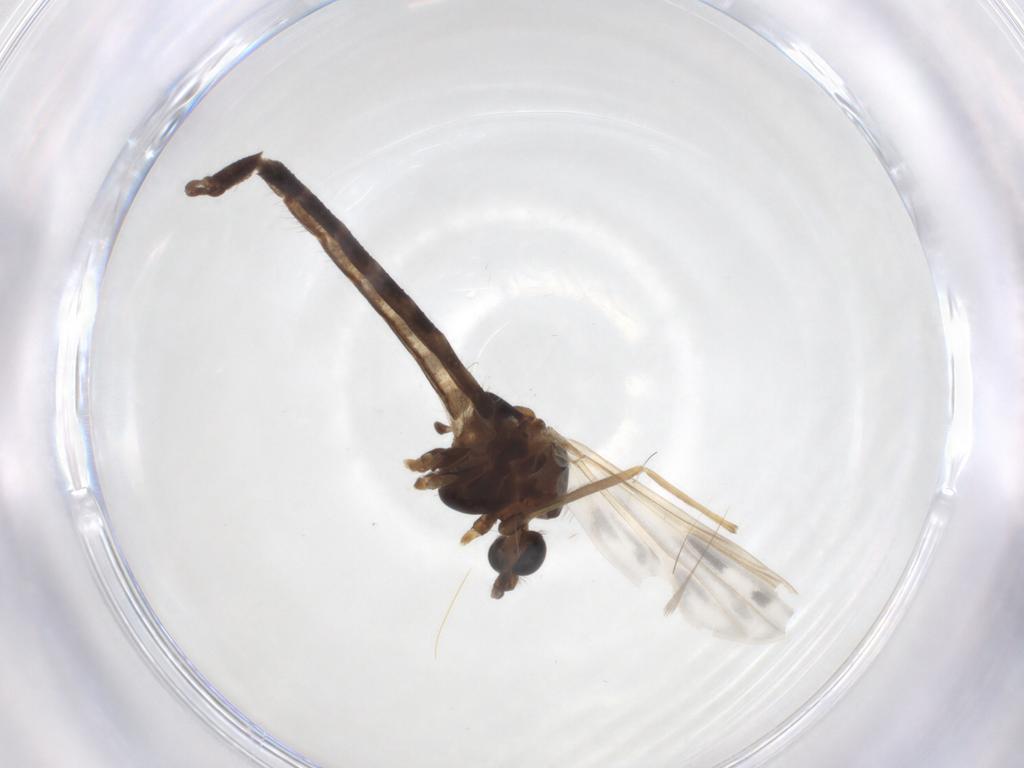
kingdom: Animalia
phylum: Arthropoda
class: Insecta
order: Diptera
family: Chironomidae
